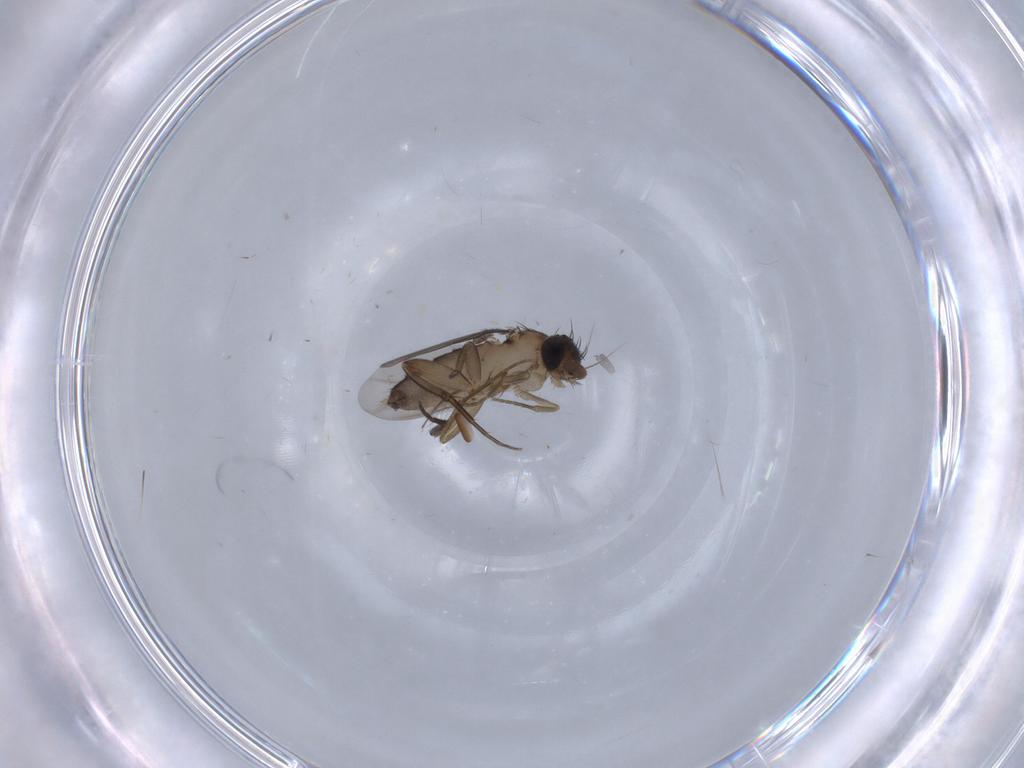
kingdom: Animalia
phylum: Arthropoda
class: Insecta
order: Diptera
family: Phoridae
